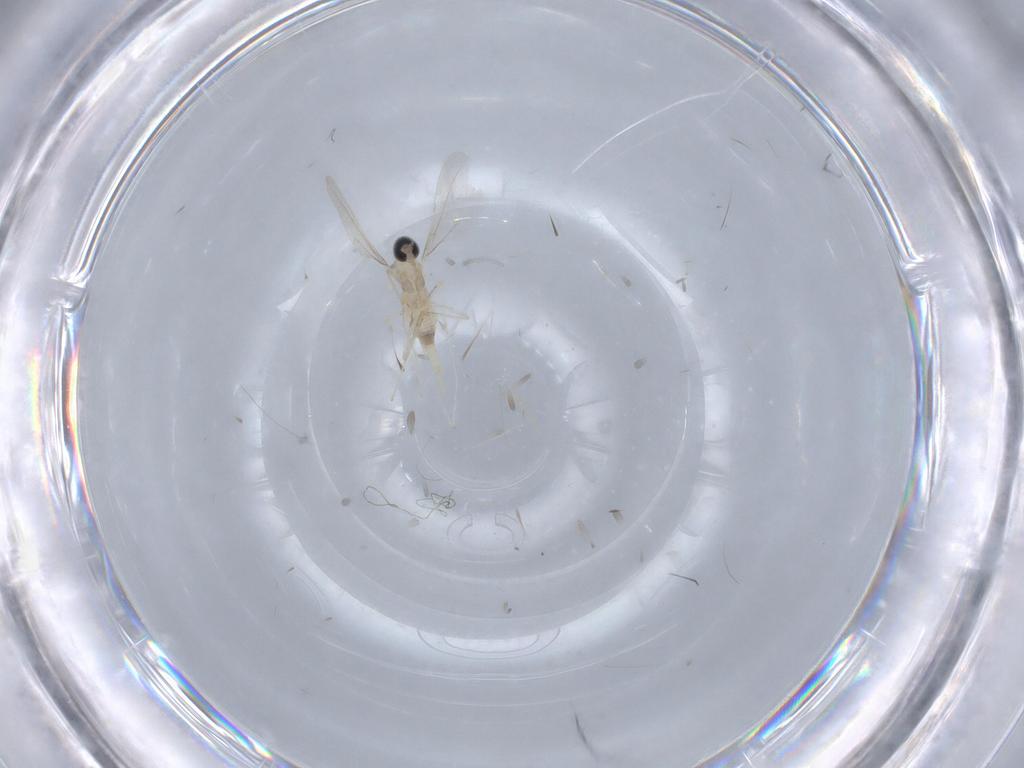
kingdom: Animalia
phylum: Arthropoda
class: Insecta
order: Diptera
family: Cecidomyiidae
